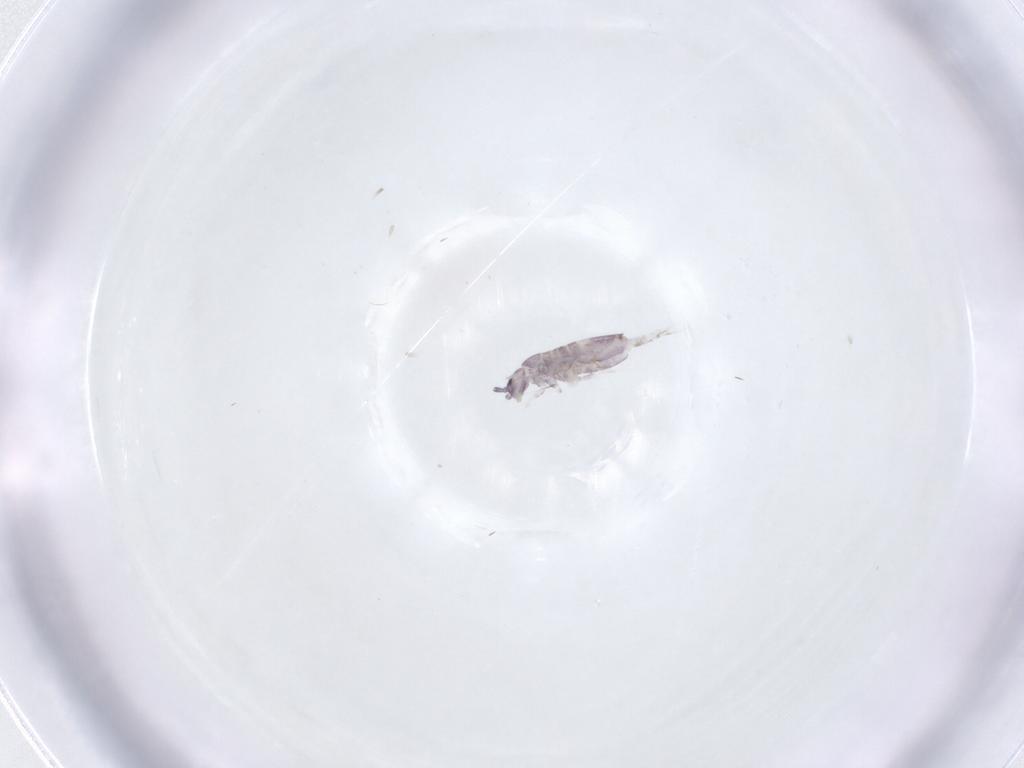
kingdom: Animalia
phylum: Arthropoda
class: Collembola
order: Entomobryomorpha
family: Entomobryidae
